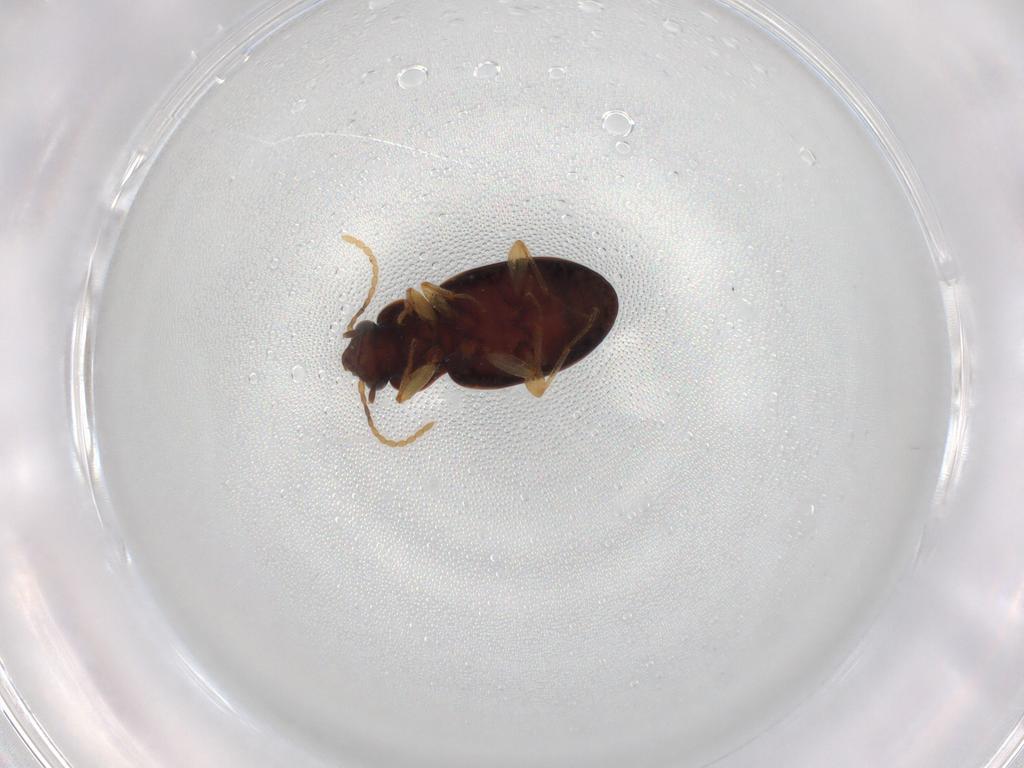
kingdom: Animalia
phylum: Arthropoda
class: Insecta
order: Coleoptera
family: Carabidae
